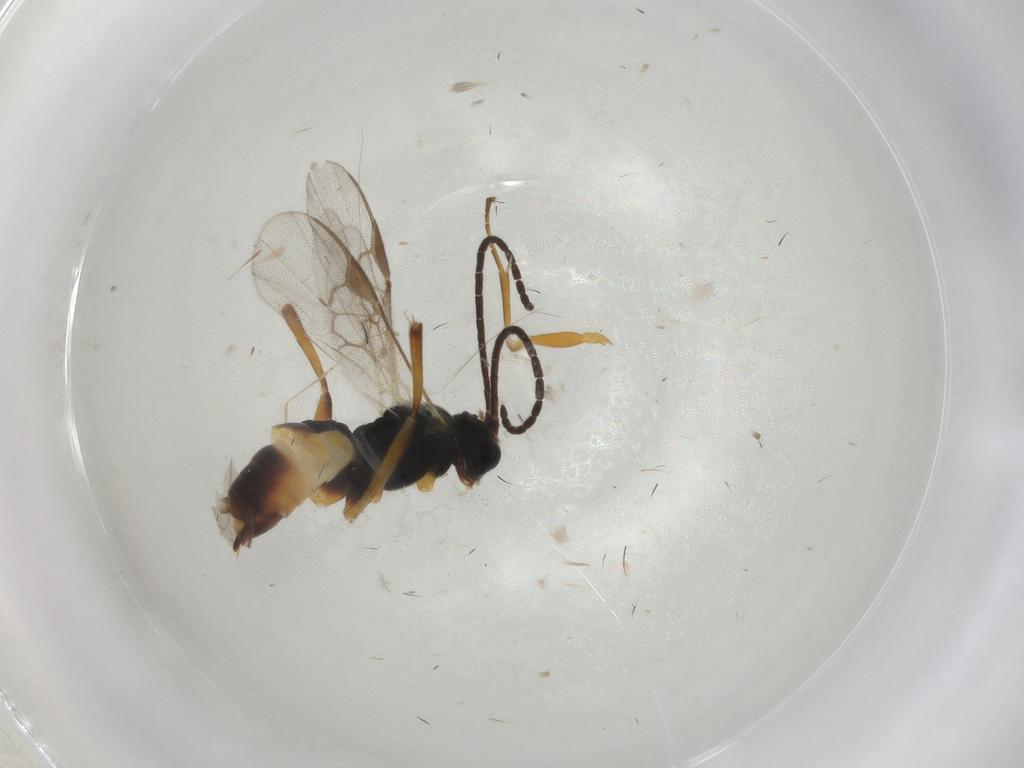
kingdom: Animalia
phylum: Arthropoda
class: Insecta
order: Hymenoptera
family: Braconidae
